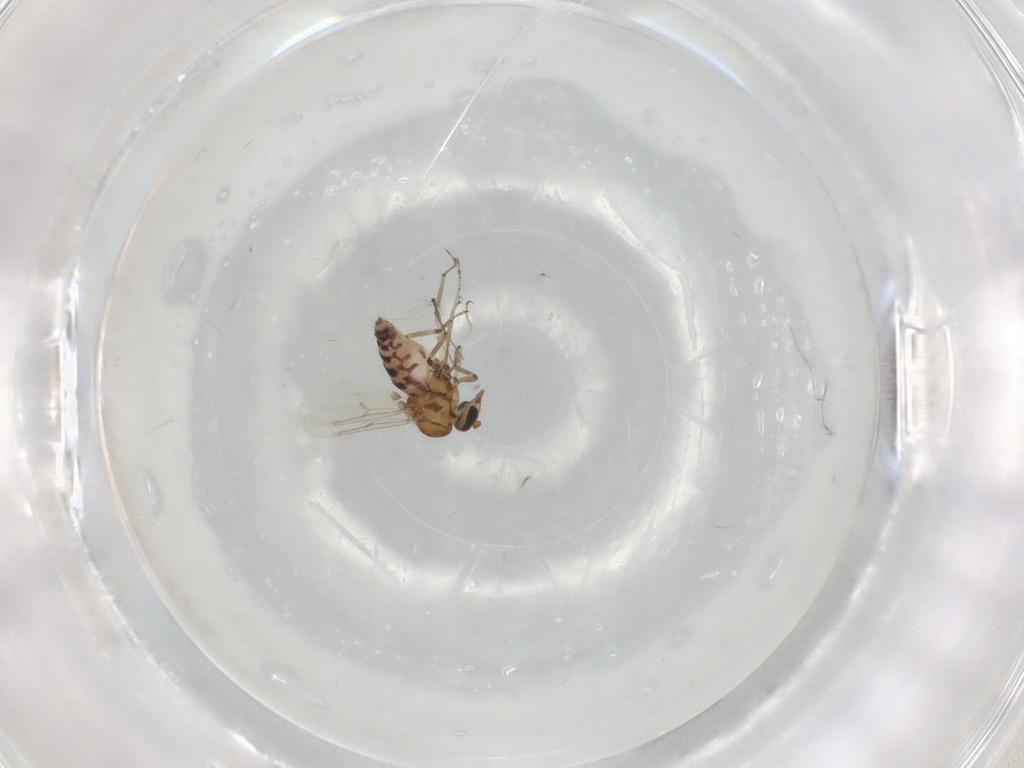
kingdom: Animalia
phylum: Arthropoda
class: Insecta
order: Diptera
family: Ceratopogonidae
